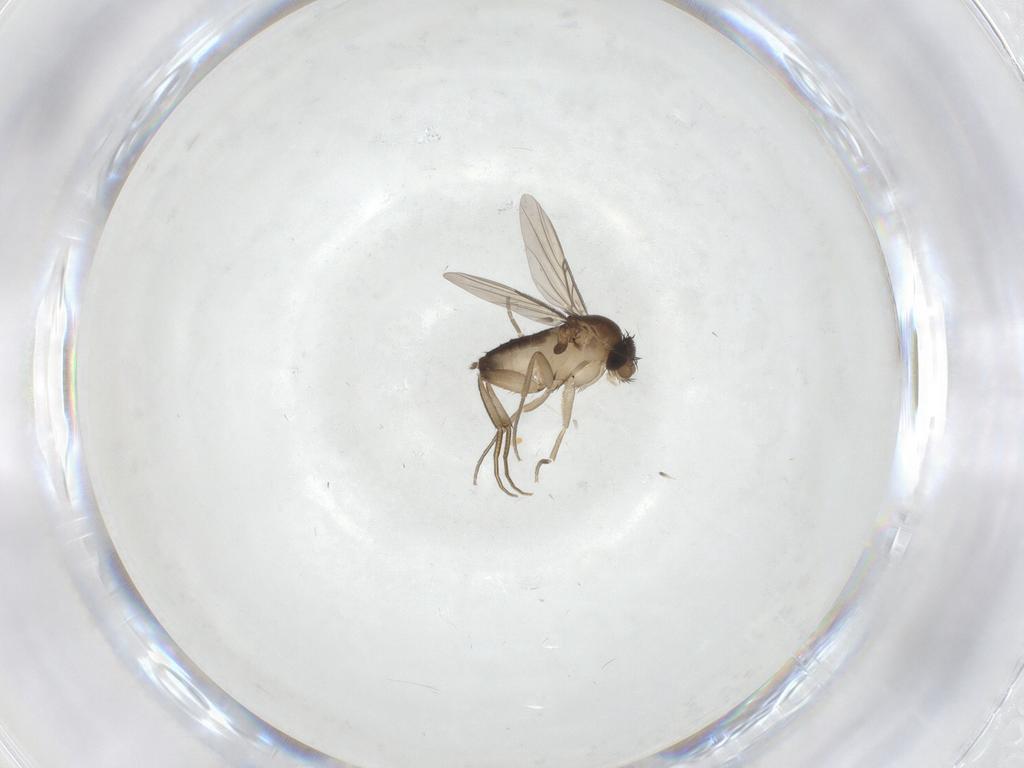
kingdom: Animalia
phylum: Arthropoda
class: Insecta
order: Diptera
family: Phoridae
